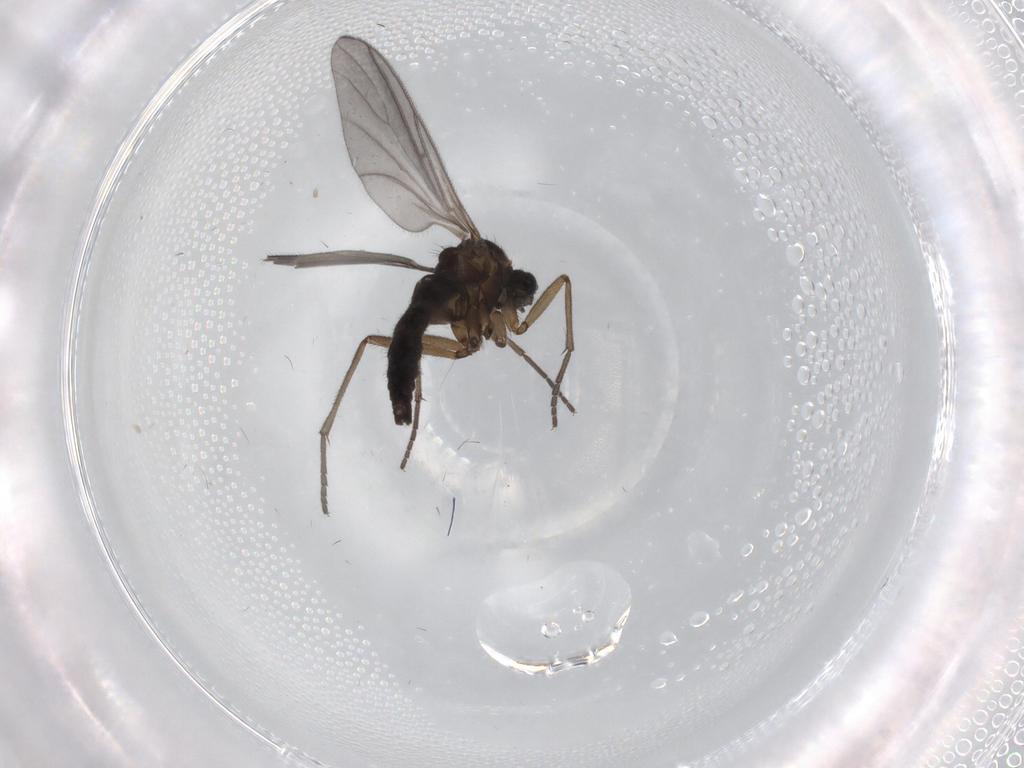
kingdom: Animalia
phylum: Arthropoda
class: Insecta
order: Diptera
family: Sciaridae
